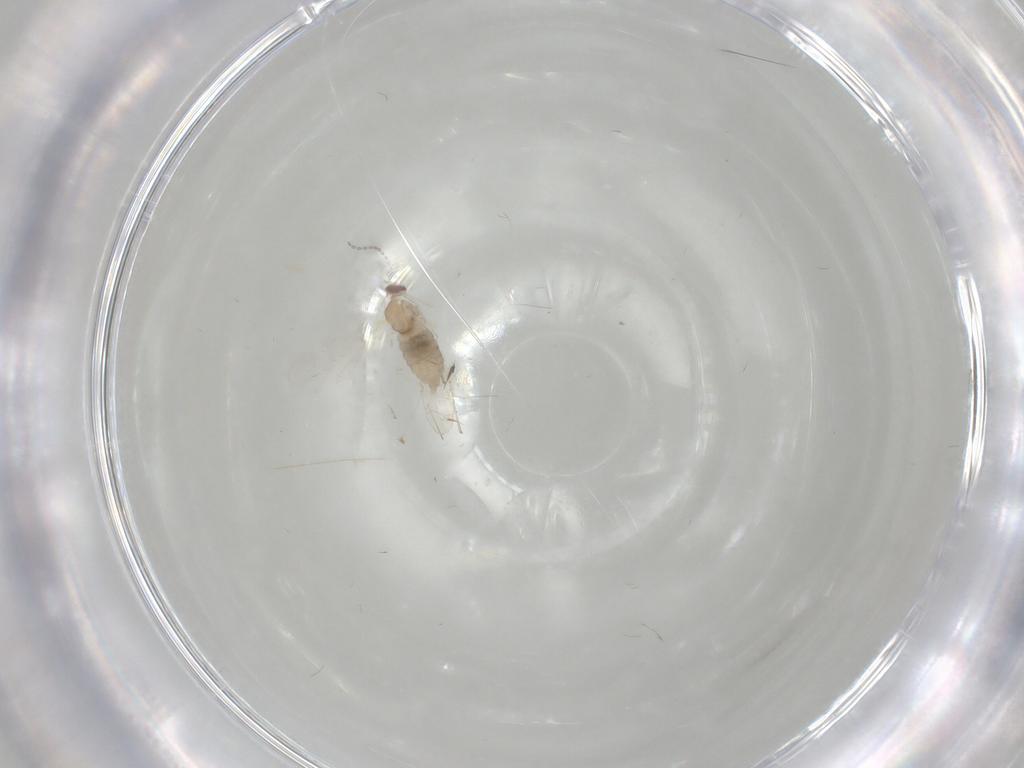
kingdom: Animalia
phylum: Arthropoda
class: Insecta
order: Diptera
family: Cecidomyiidae
